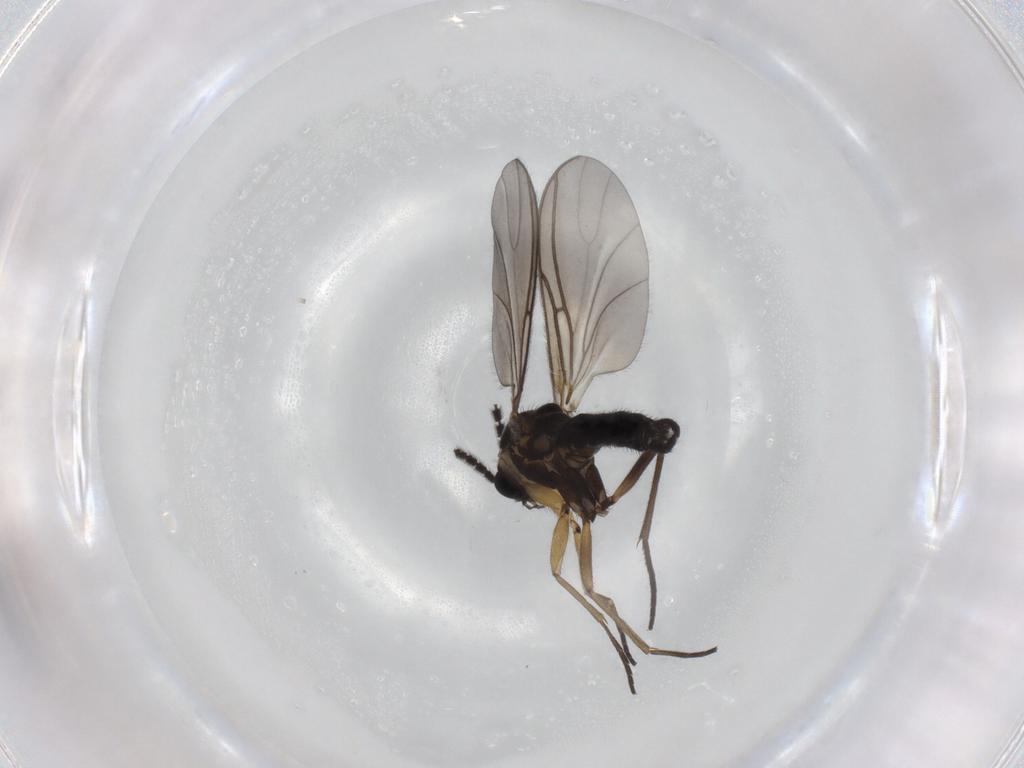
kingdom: Animalia
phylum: Arthropoda
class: Insecta
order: Diptera
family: Sciaridae
